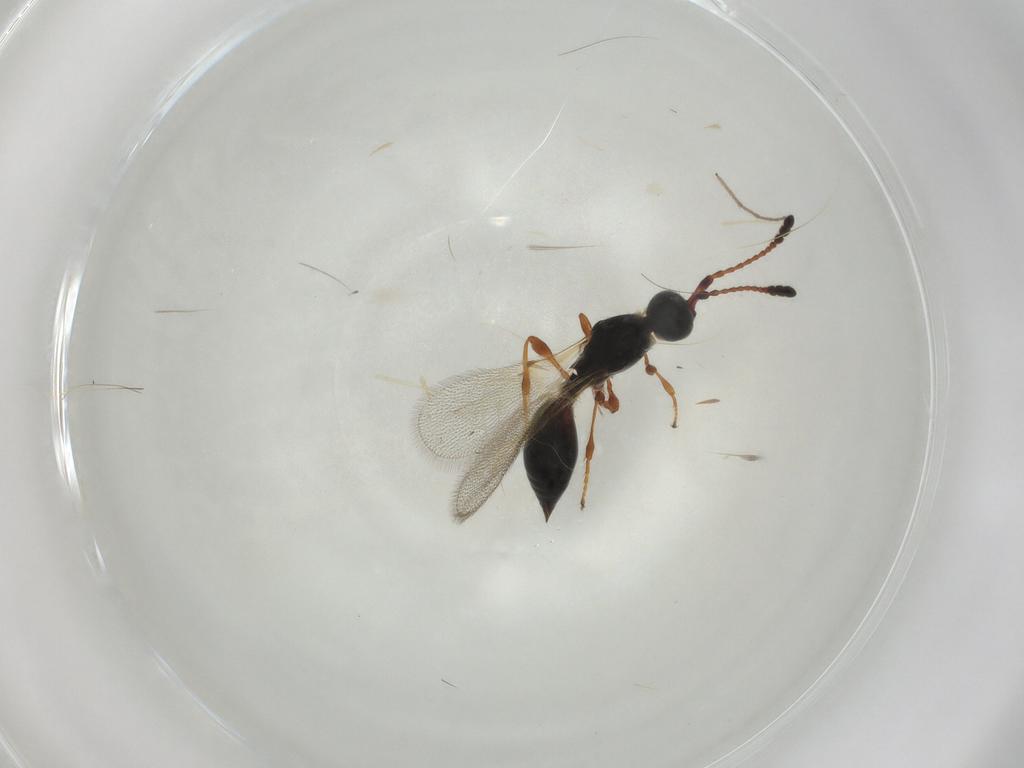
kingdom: Animalia
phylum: Arthropoda
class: Insecta
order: Hymenoptera
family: Diapriidae
